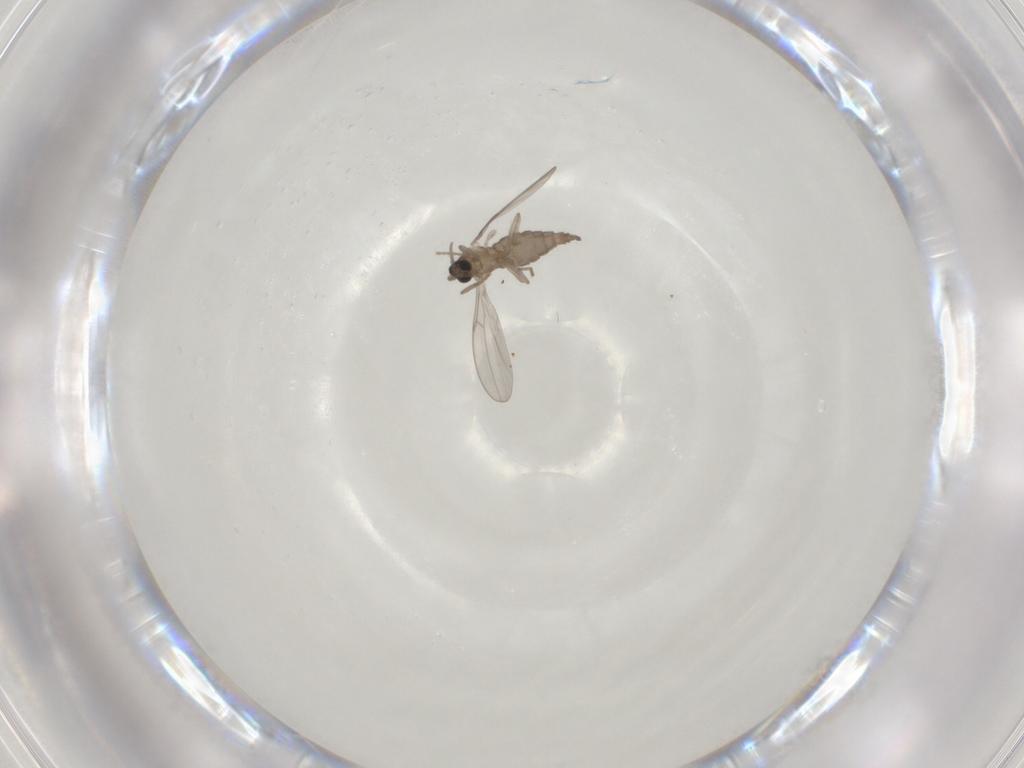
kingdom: Animalia
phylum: Arthropoda
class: Insecta
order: Diptera
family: Cecidomyiidae
